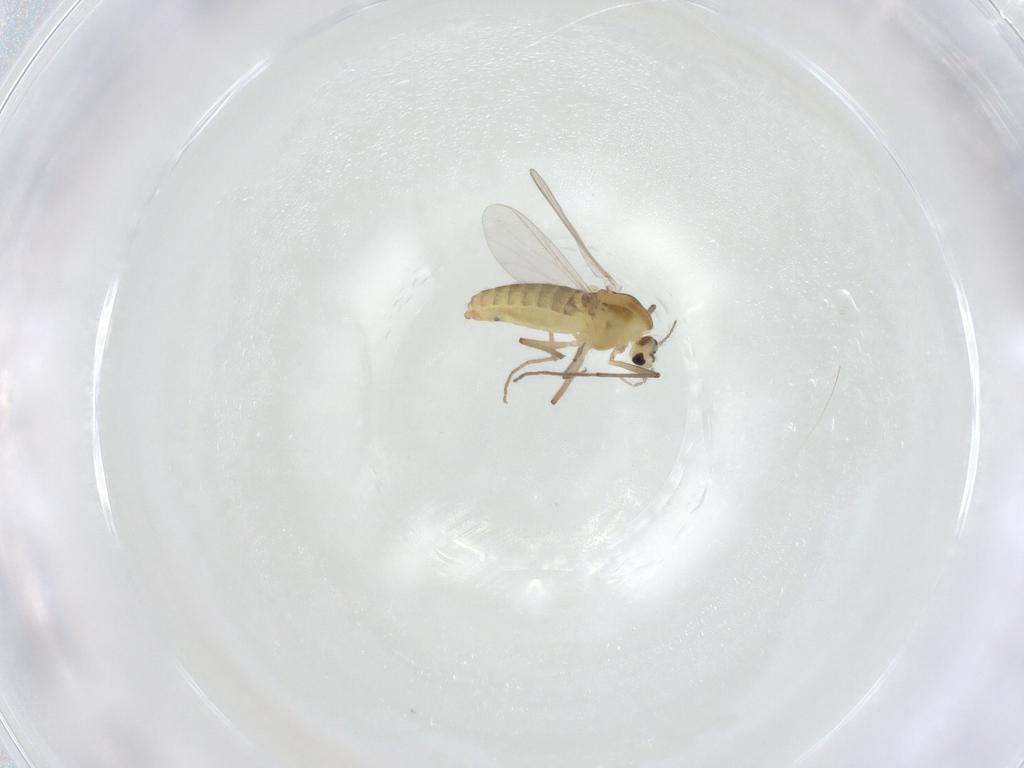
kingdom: Animalia
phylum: Arthropoda
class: Insecta
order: Diptera
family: Chironomidae
